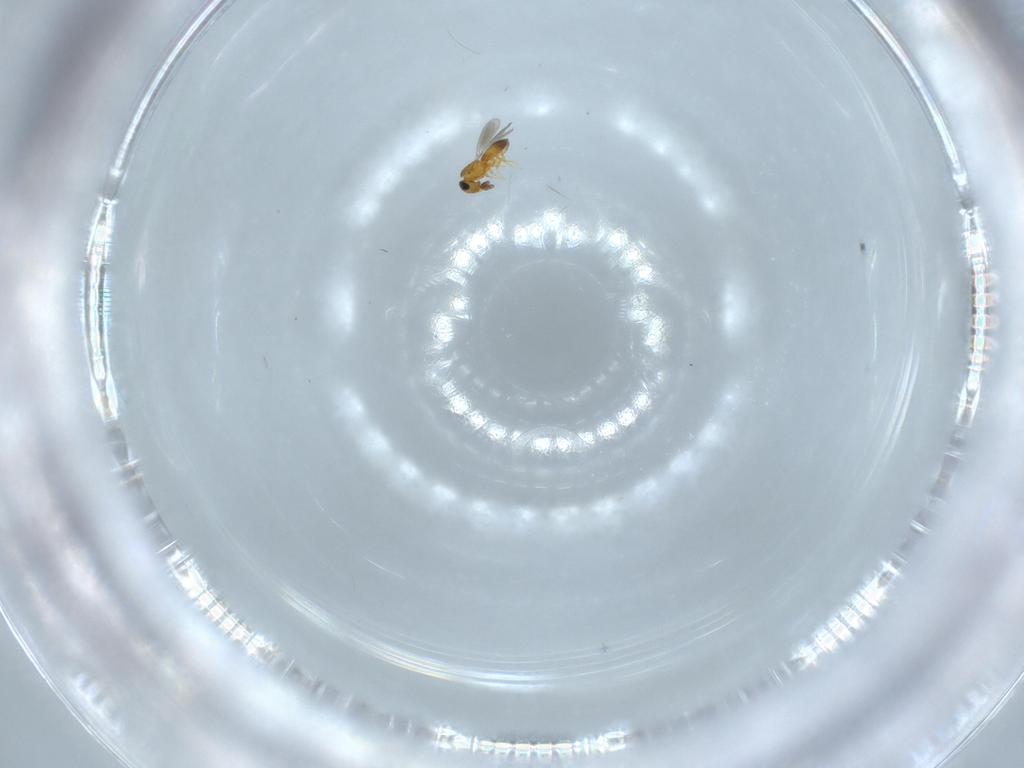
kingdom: Animalia
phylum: Arthropoda
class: Insecta
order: Hymenoptera
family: Platygastridae
